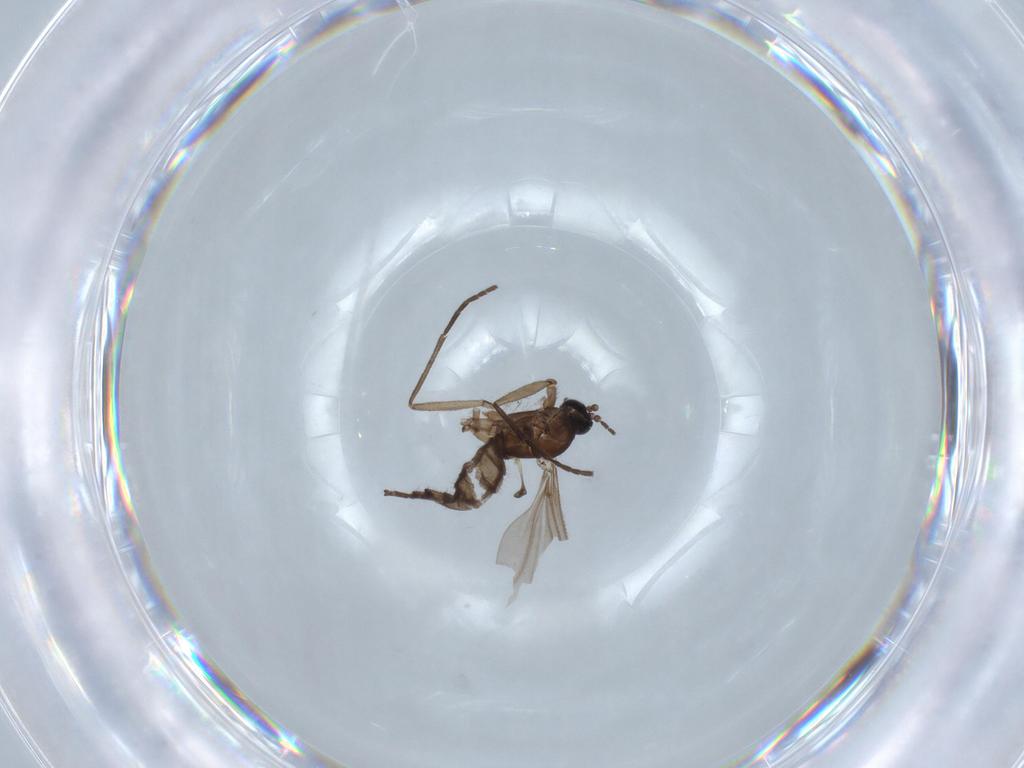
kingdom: Animalia
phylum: Arthropoda
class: Insecta
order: Diptera
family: Sciaridae
